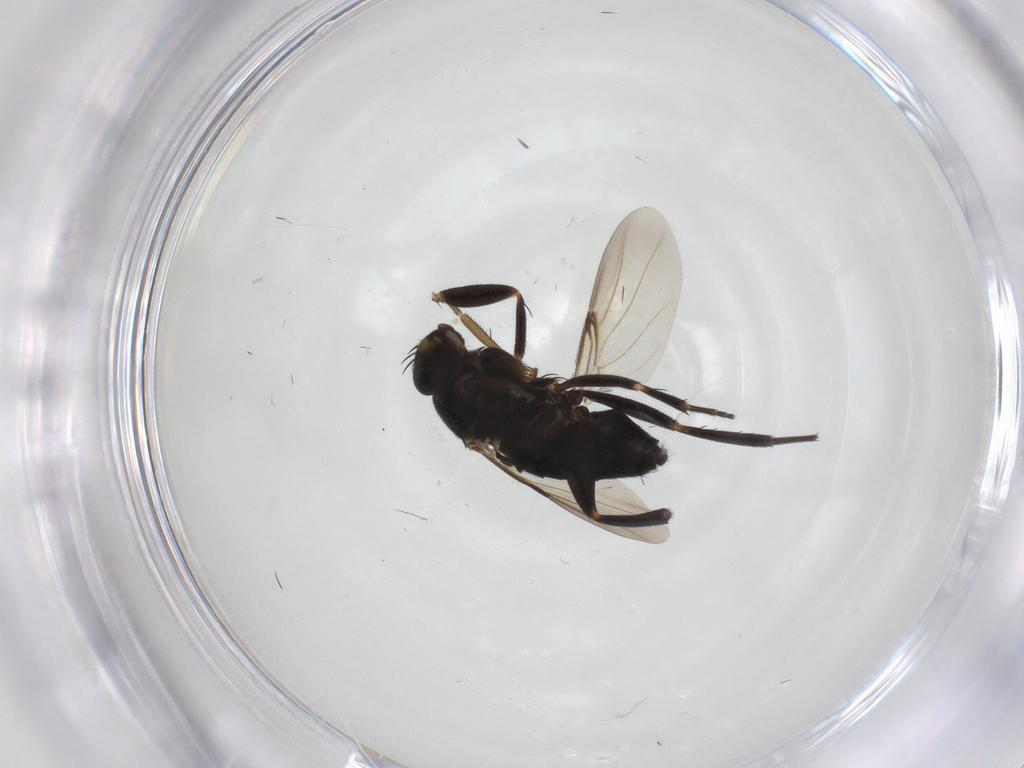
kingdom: Animalia
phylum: Arthropoda
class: Insecta
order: Diptera
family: Phoridae
